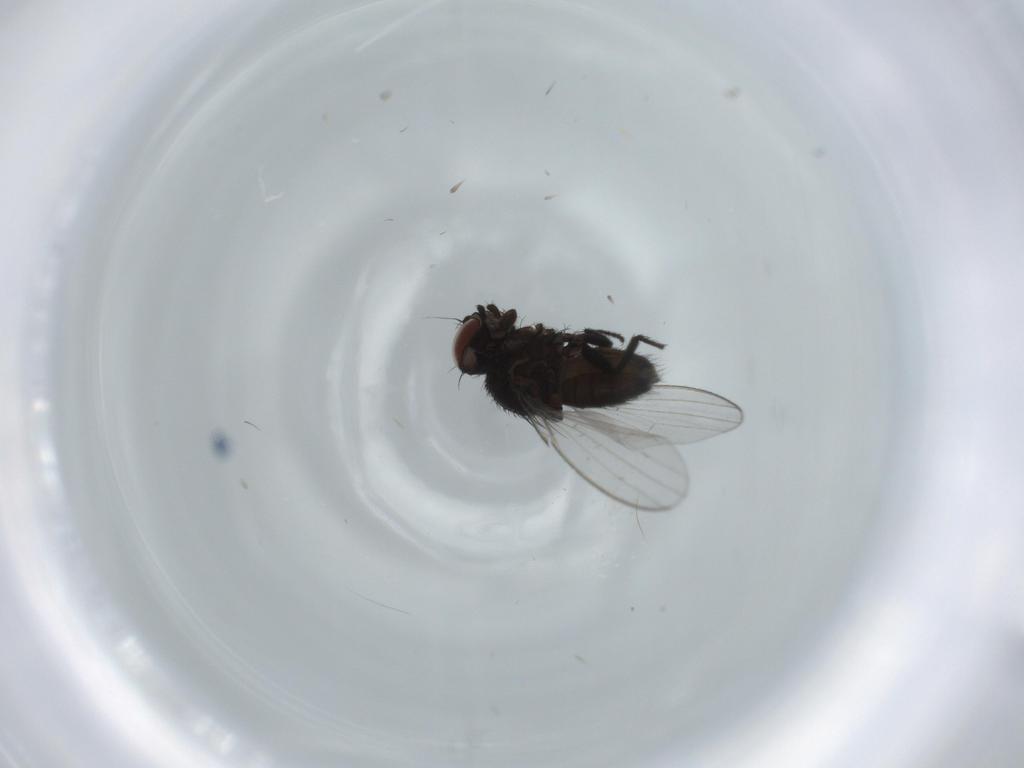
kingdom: Animalia
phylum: Arthropoda
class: Insecta
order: Diptera
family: Milichiidae
